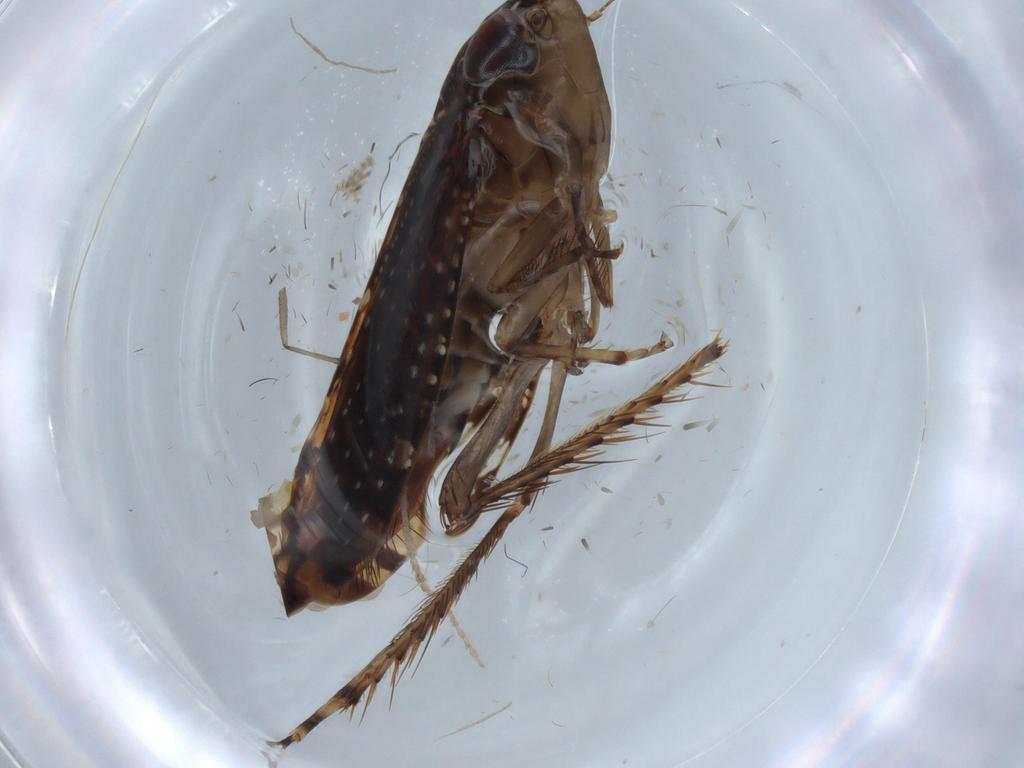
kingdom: Animalia
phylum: Arthropoda
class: Insecta
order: Hemiptera
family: Cicadellidae
